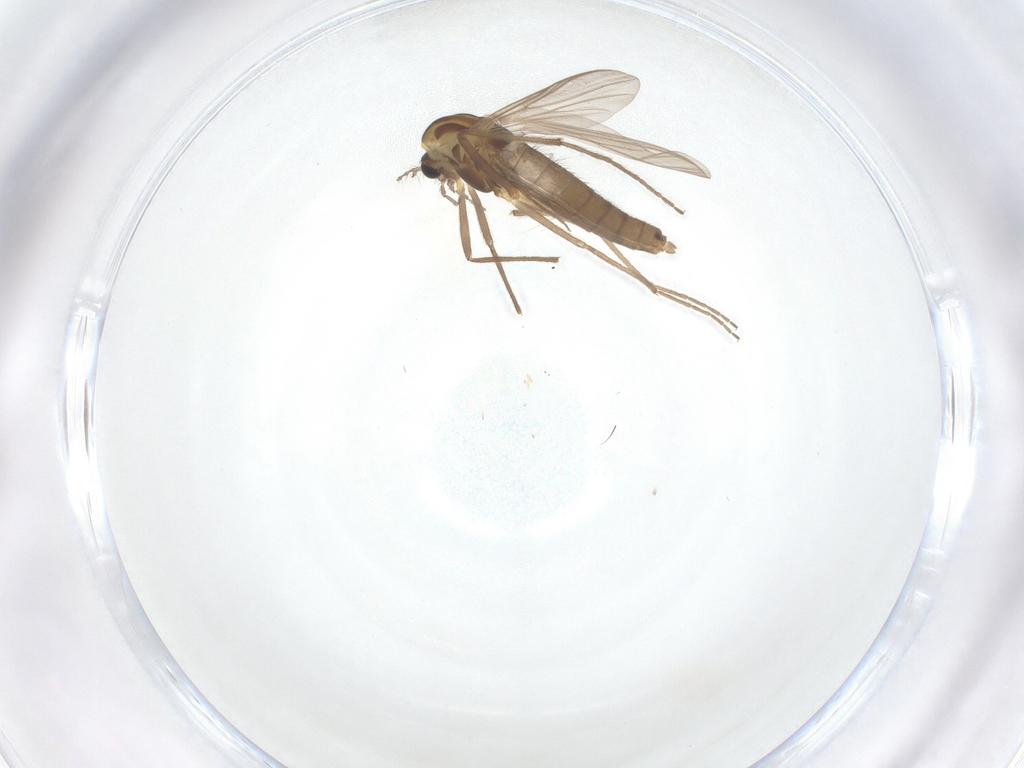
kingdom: Animalia
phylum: Arthropoda
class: Insecta
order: Diptera
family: Chironomidae
